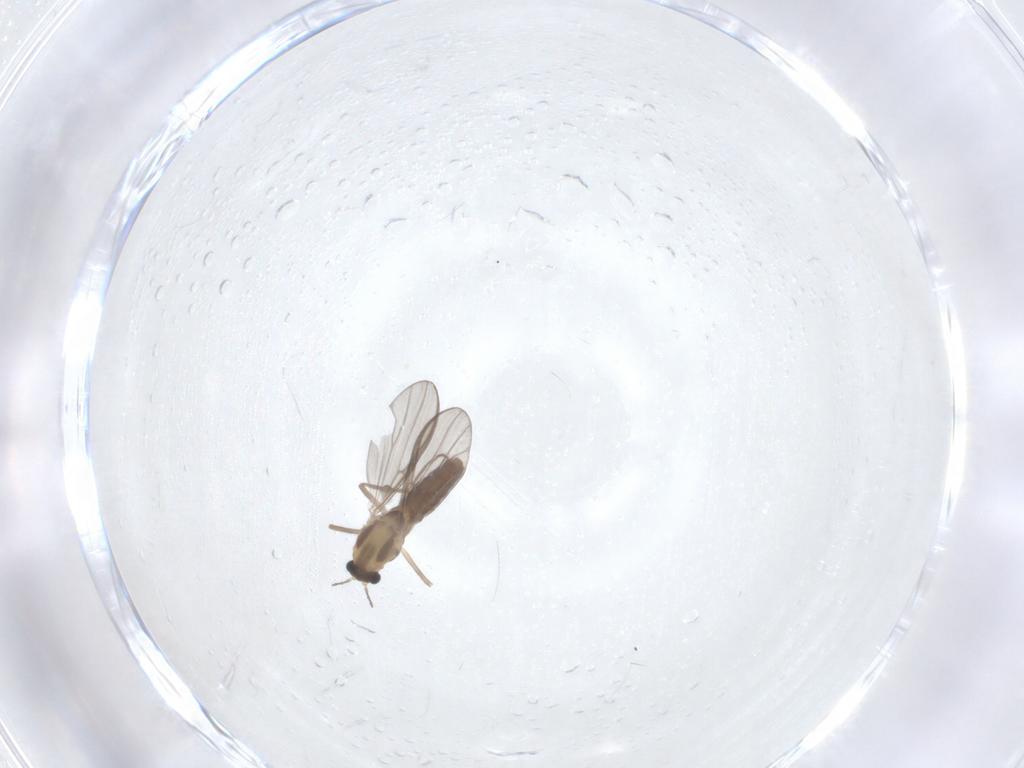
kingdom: Animalia
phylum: Arthropoda
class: Insecta
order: Diptera
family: Chironomidae
